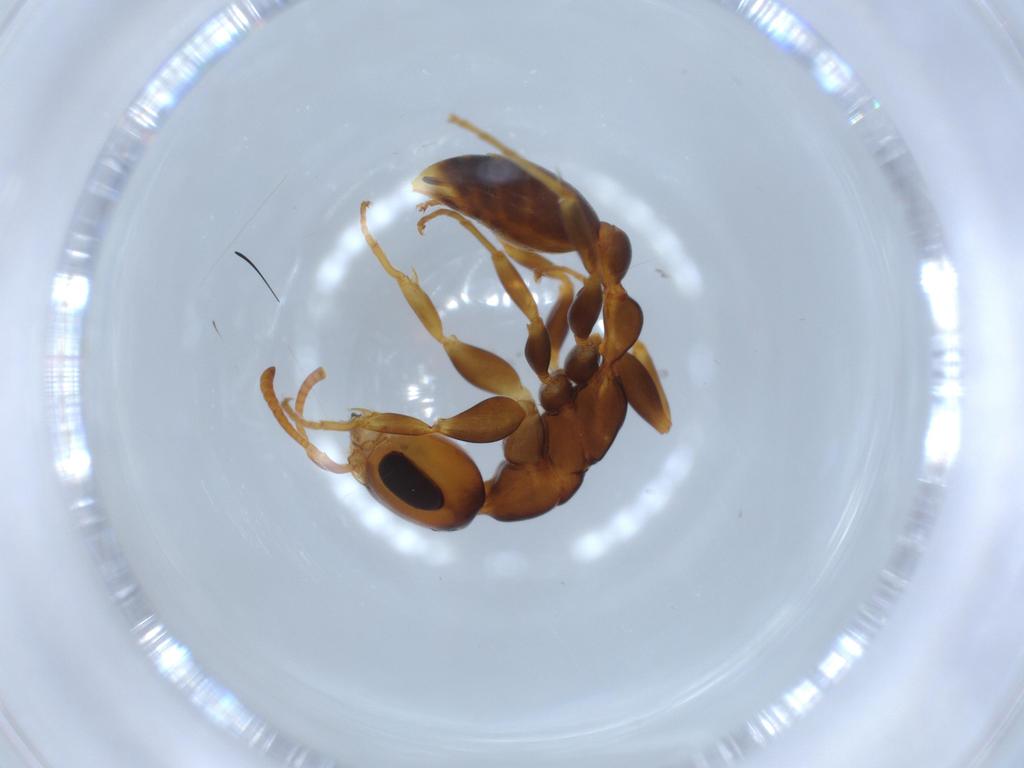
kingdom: Animalia
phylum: Arthropoda
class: Insecta
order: Hymenoptera
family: Formicidae
